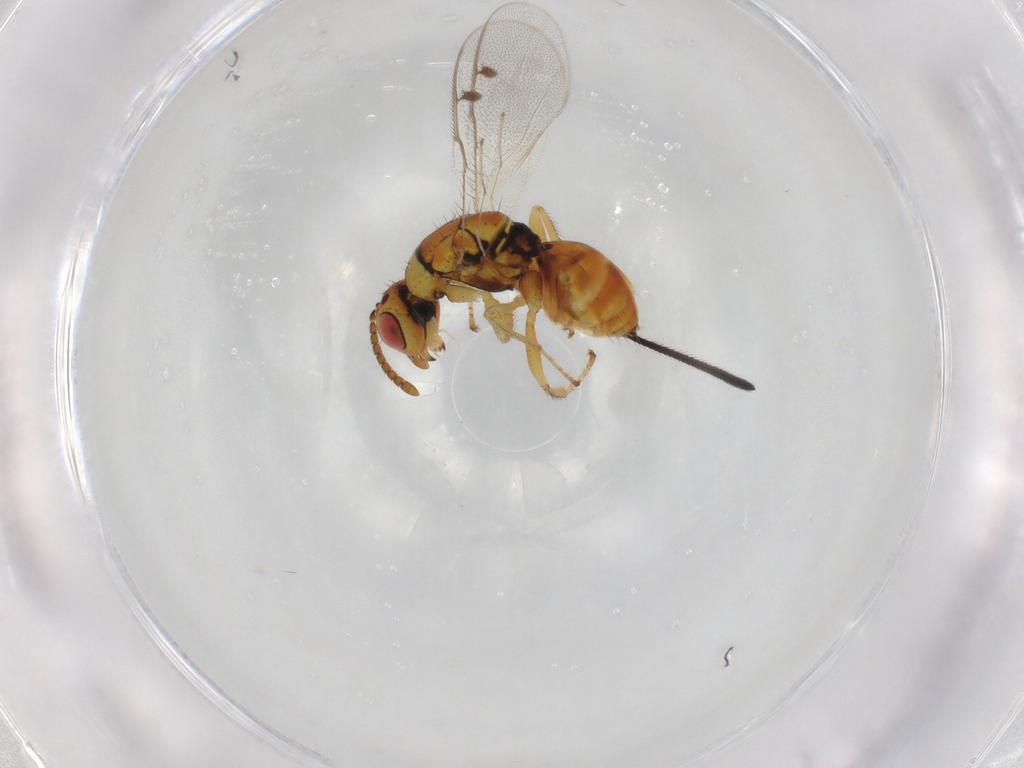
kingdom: Animalia
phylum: Arthropoda
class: Insecta
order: Hymenoptera
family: Megastigmidae
